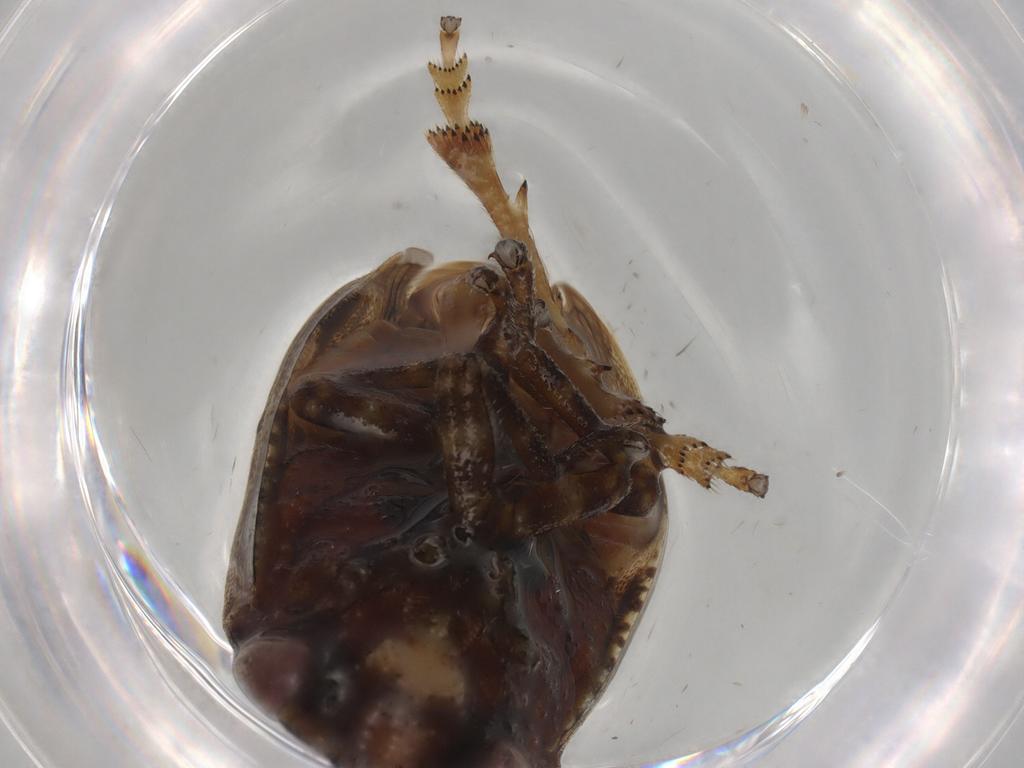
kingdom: Animalia
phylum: Arthropoda
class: Insecta
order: Hemiptera
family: Aphrophoridae
